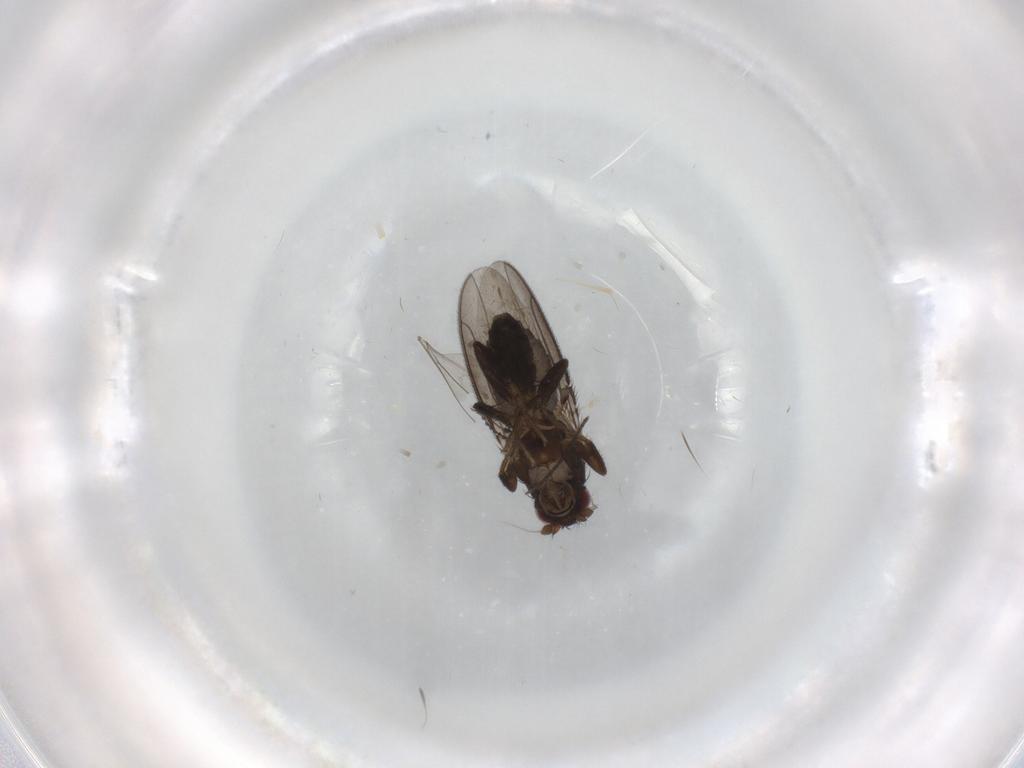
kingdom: Animalia
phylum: Arthropoda
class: Insecta
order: Diptera
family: Sphaeroceridae
